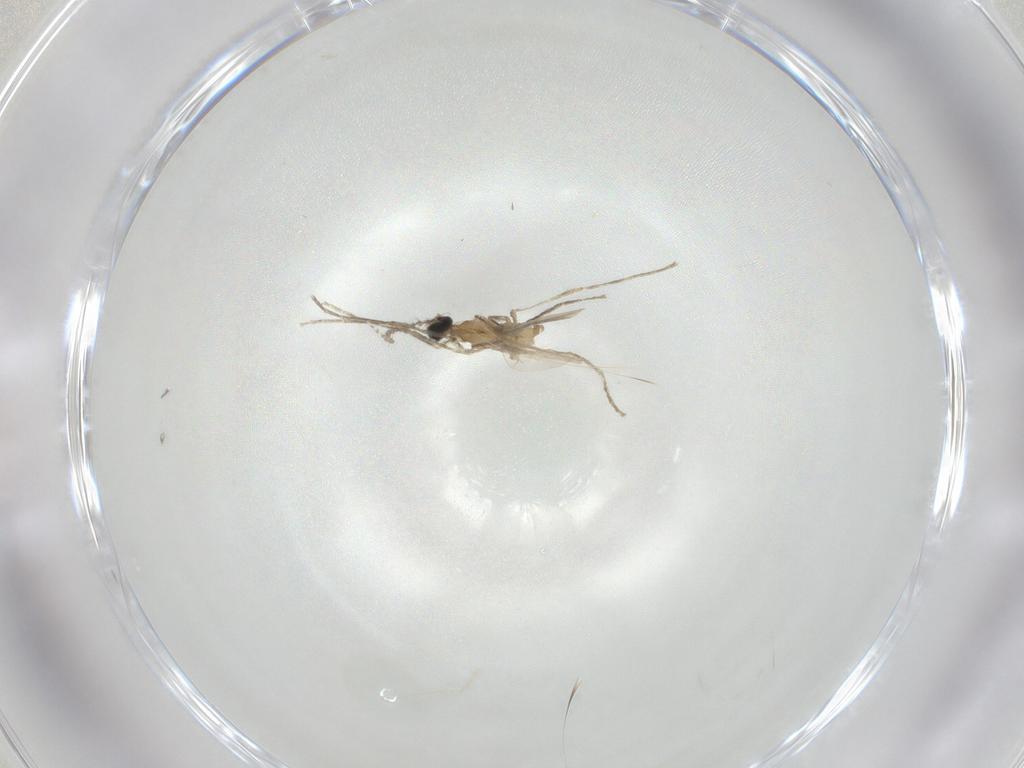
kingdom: Animalia
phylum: Arthropoda
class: Insecta
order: Diptera
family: Cecidomyiidae
